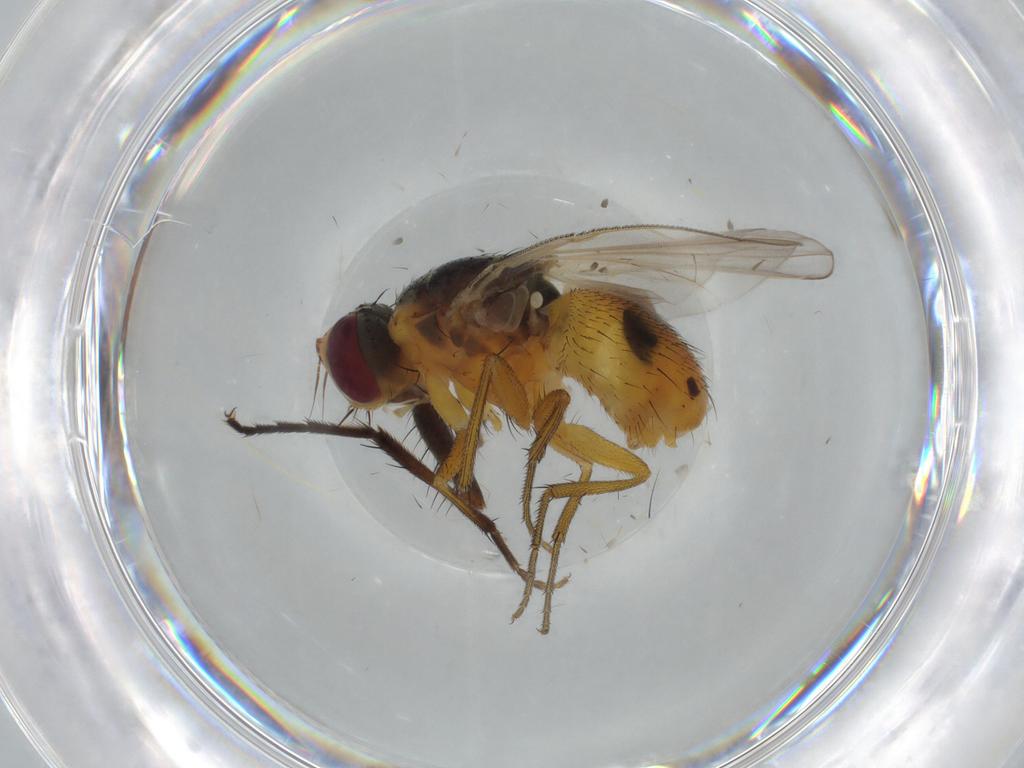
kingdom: Animalia
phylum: Arthropoda
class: Insecta
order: Diptera
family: Muscidae
